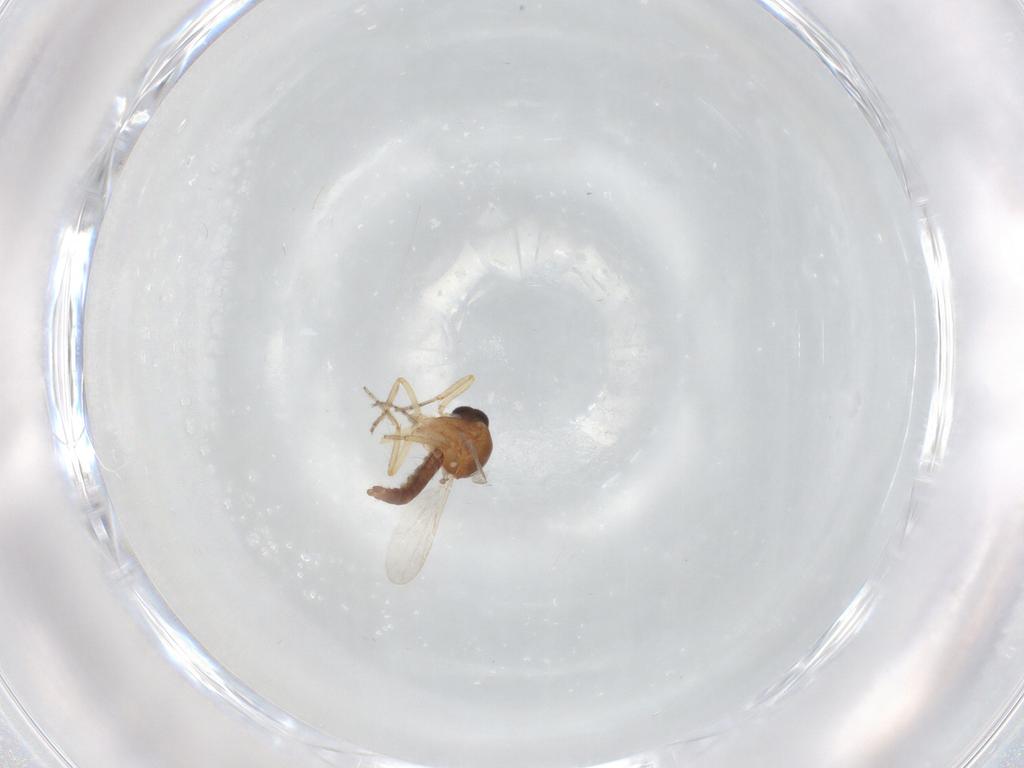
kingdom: Animalia
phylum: Arthropoda
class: Insecta
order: Diptera
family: Ceratopogonidae
